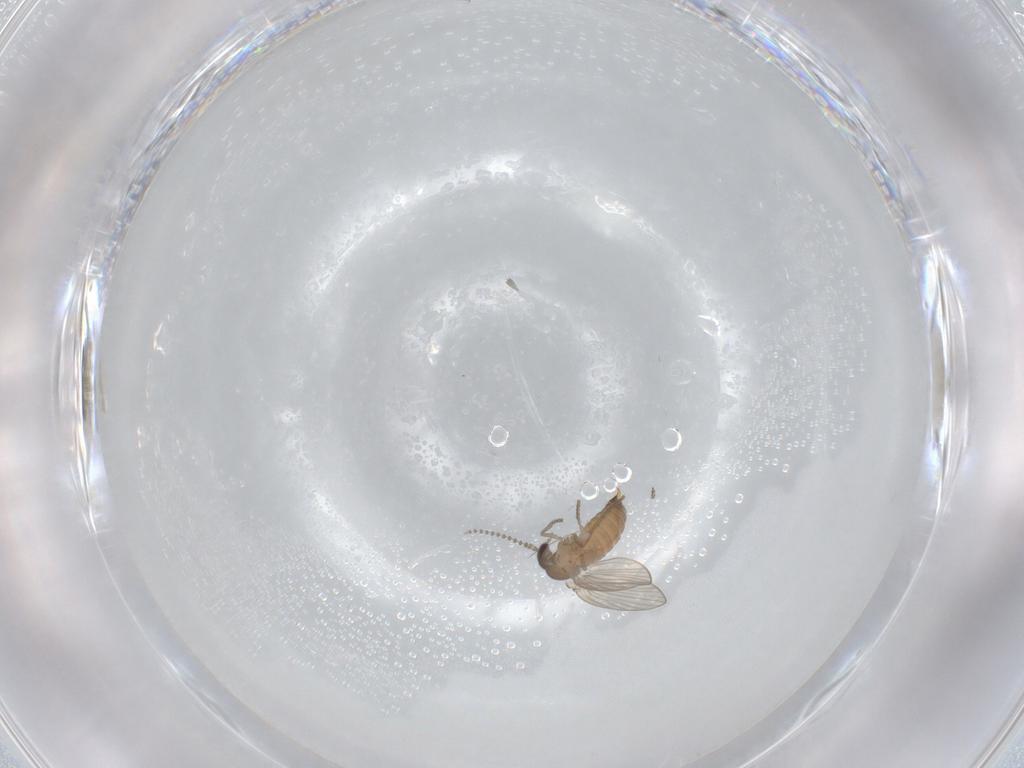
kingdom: Animalia
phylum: Arthropoda
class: Insecta
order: Diptera
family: Psychodidae
